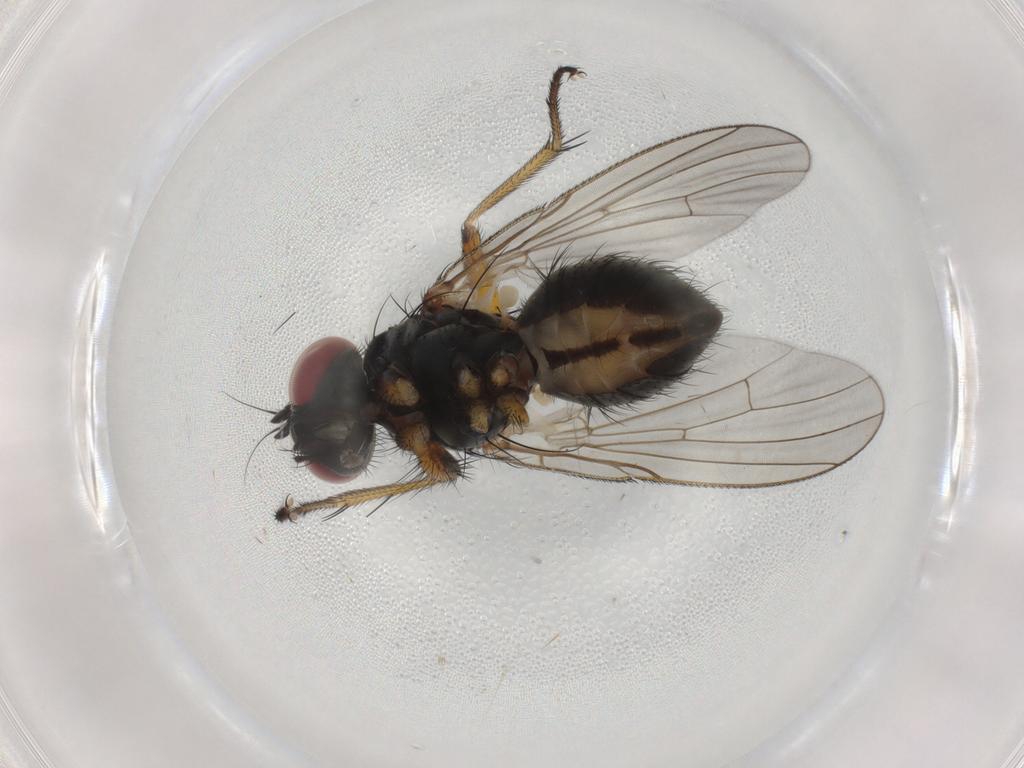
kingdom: Animalia
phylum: Arthropoda
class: Insecta
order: Diptera
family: Muscidae
